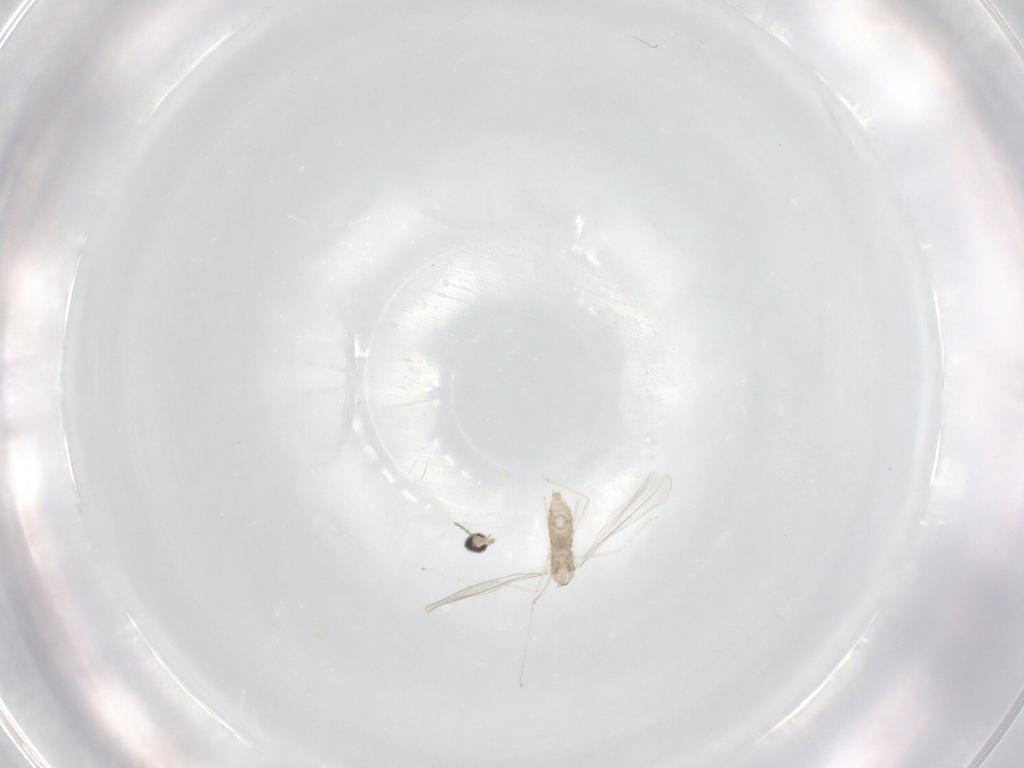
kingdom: Animalia
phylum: Arthropoda
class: Insecta
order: Diptera
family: Cecidomyiidae
